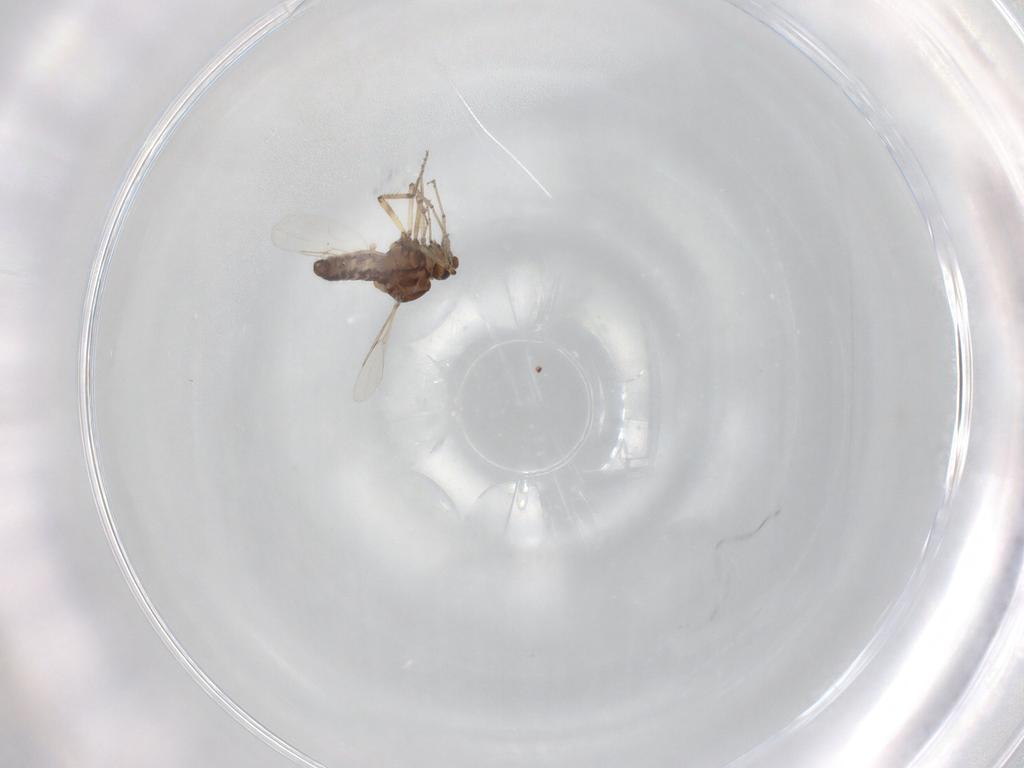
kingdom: Animalia
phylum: Arthropoda
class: Insecta
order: Diptera
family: Ceratopogonidae
